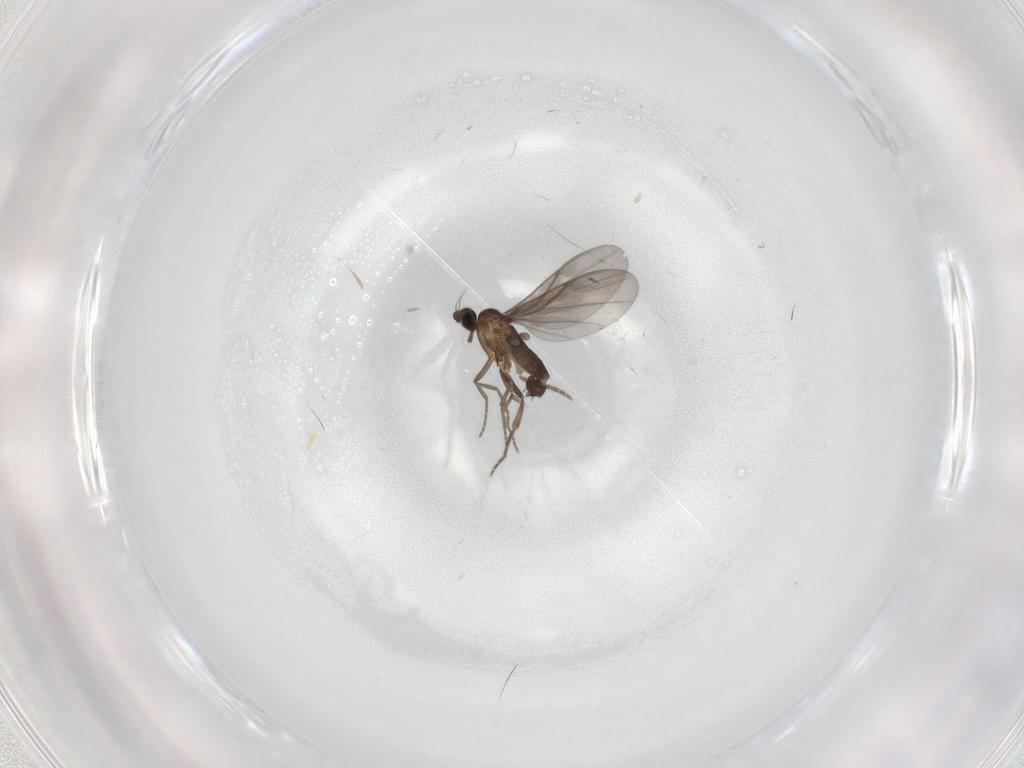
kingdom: Animalia
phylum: Arthropoda
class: Insecta
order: Diptera
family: Phoridae
